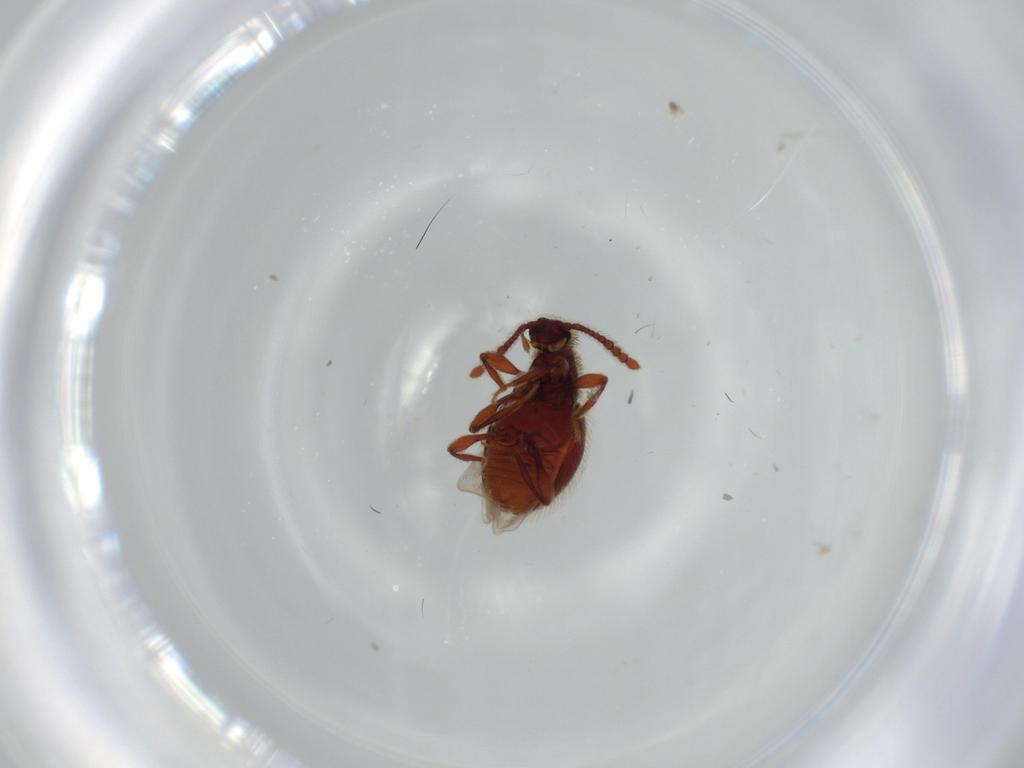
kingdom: Animalia
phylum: Arthropoda
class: Insecta
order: Coleoptera
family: Curculionidae
